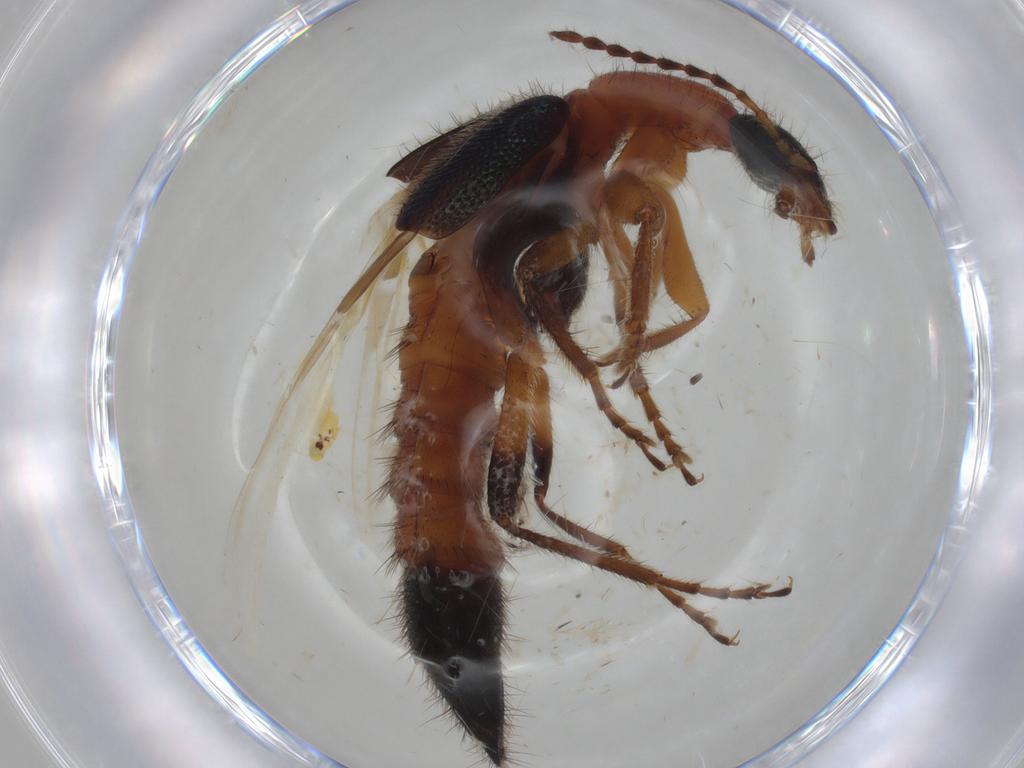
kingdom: Animalia
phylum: Arthropoda
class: Insecta
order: Coleoptera
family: Staphylinidae
